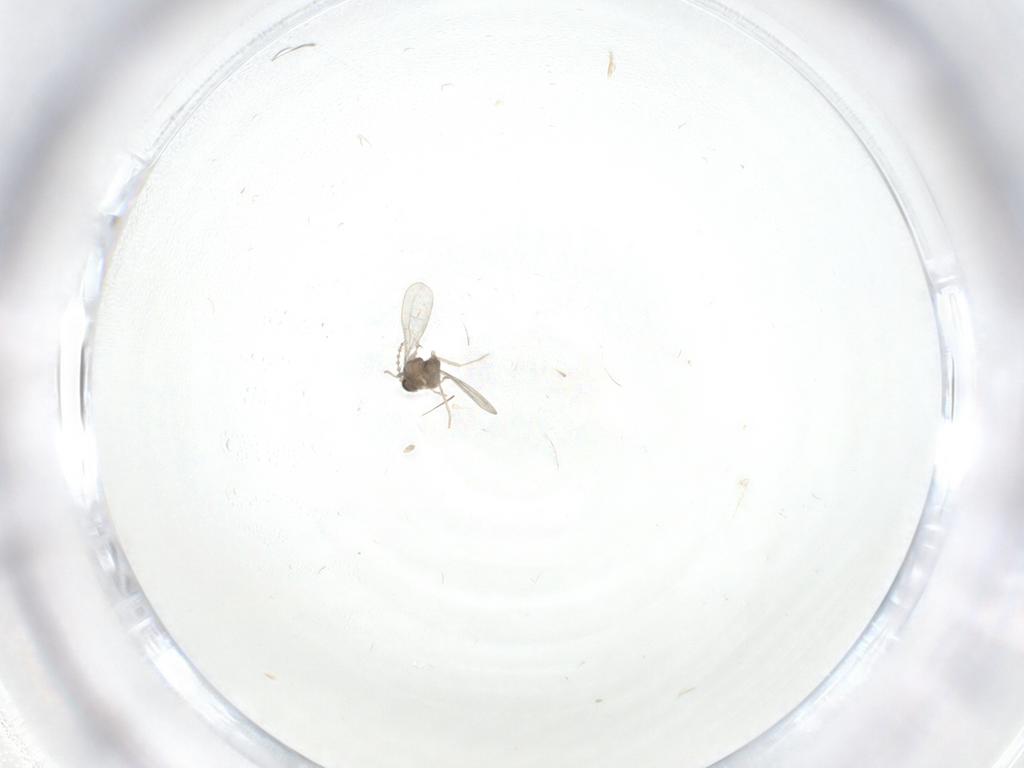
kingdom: Animalia
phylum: Arthropoda
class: Insecta
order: Diptera
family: Cecidomyiidae
